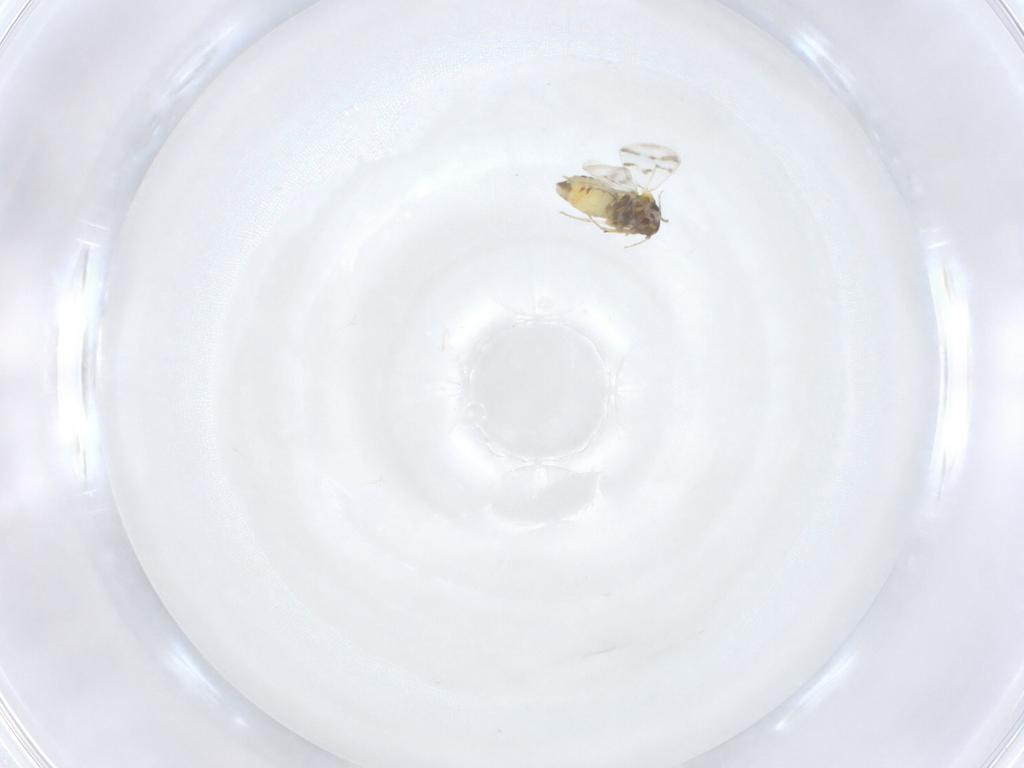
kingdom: Animalia
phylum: Arthropoda
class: Insecta
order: Hemiptera
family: Aleyrodidae
